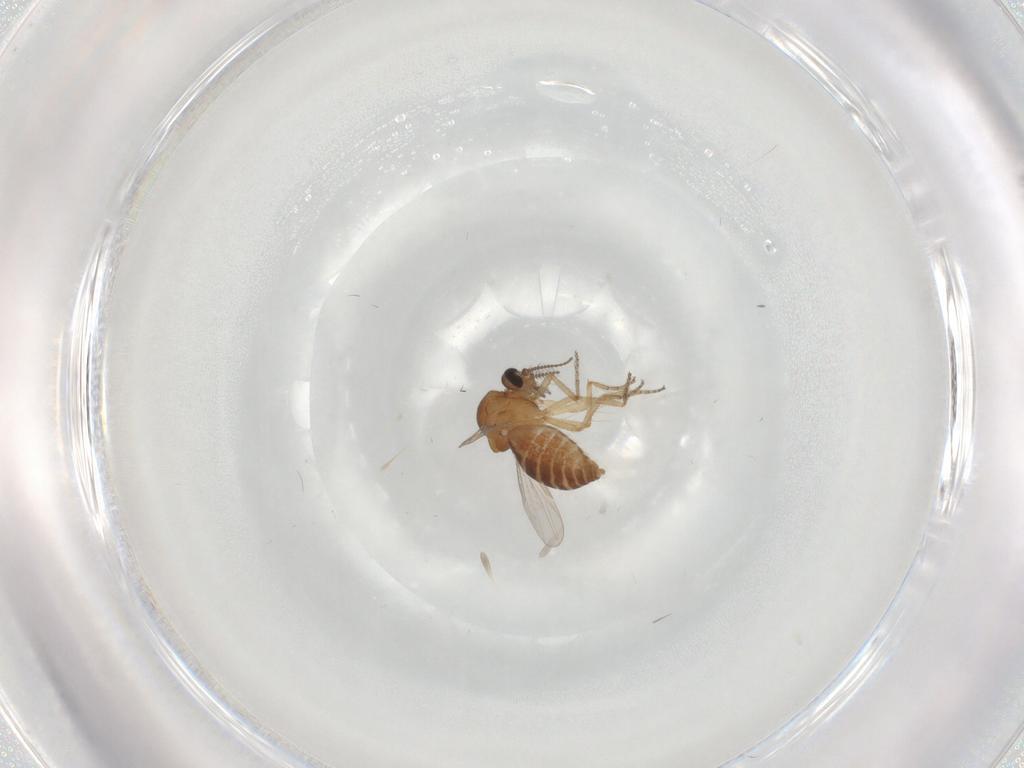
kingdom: Animalia
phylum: Arthropoda
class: Insecta
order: Diptera
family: Ceratopogonidae
